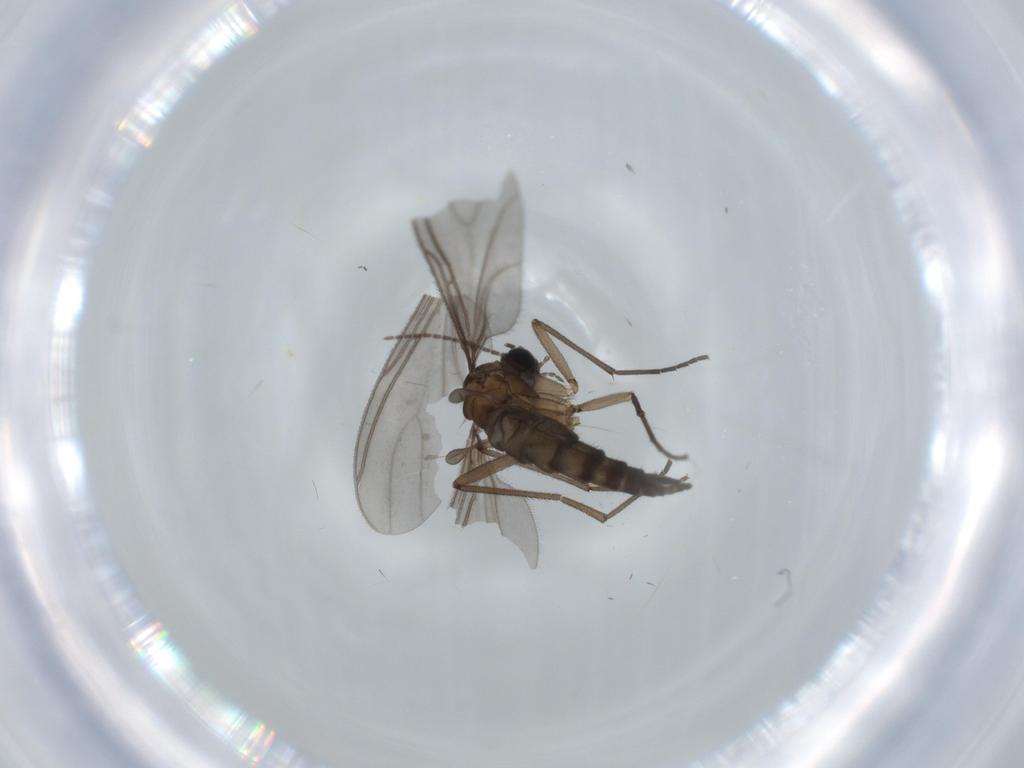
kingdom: Animalia
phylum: Arthropoda
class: Insecta
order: Diptera
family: Sciaridae
